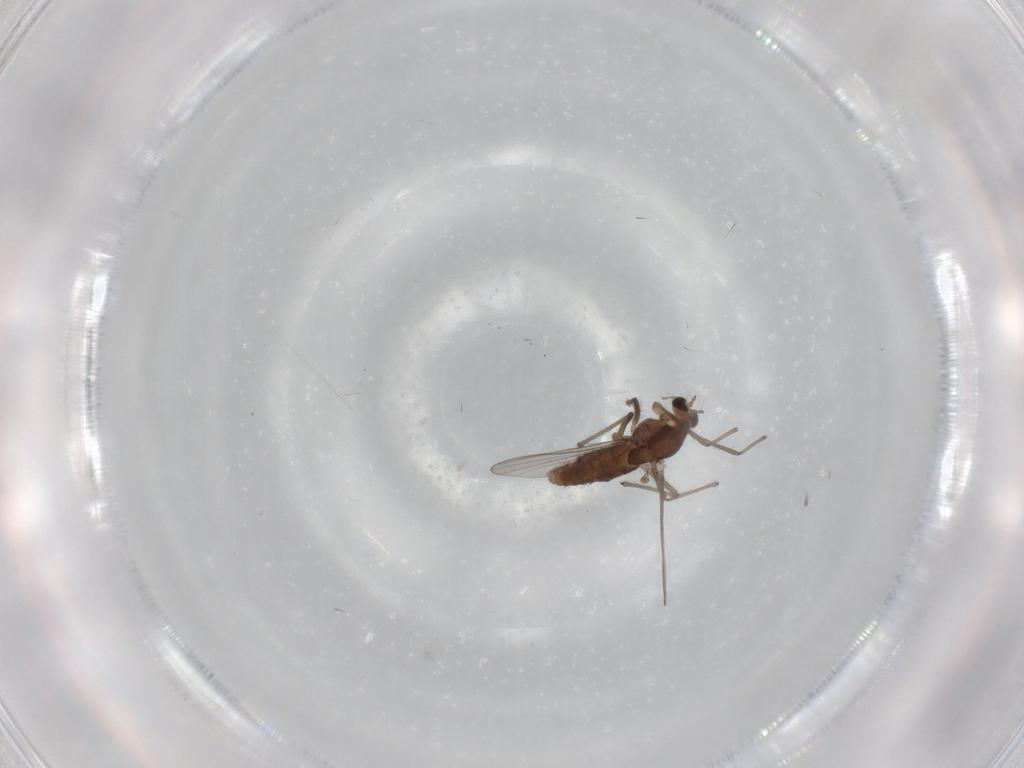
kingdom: Animalia
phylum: Arthropoda
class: Insecta
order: Diptera
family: Chironomidae
